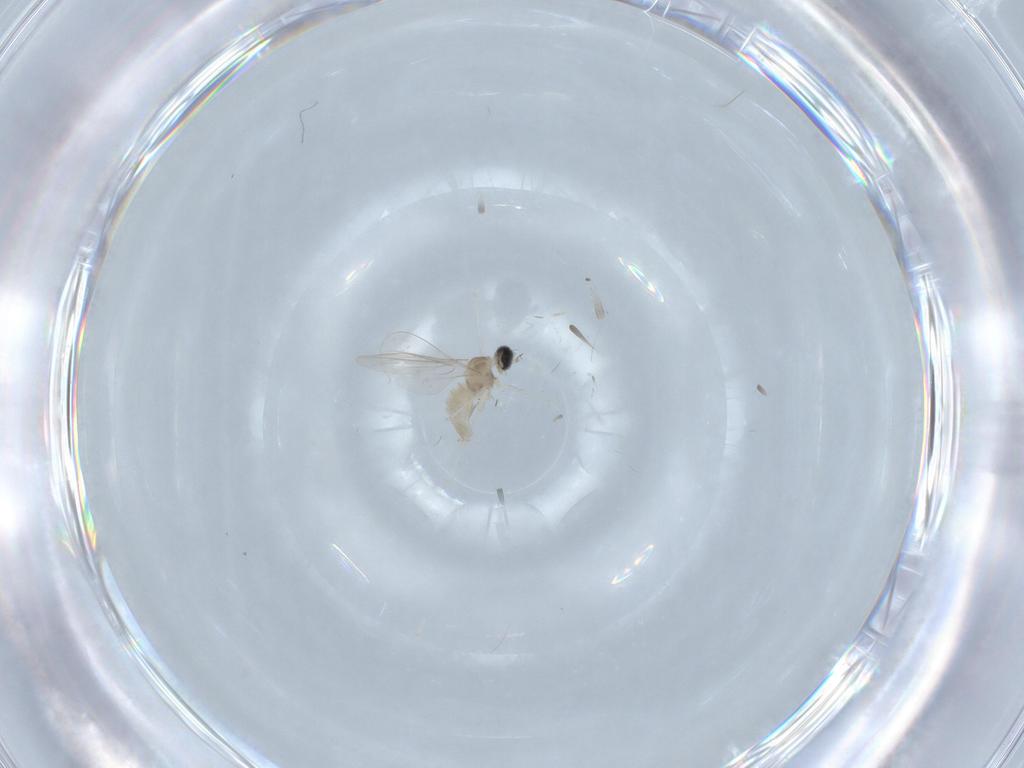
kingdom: Animalia
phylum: Arthropoda
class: Insecta
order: Diptera
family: Cecidomyiidae
